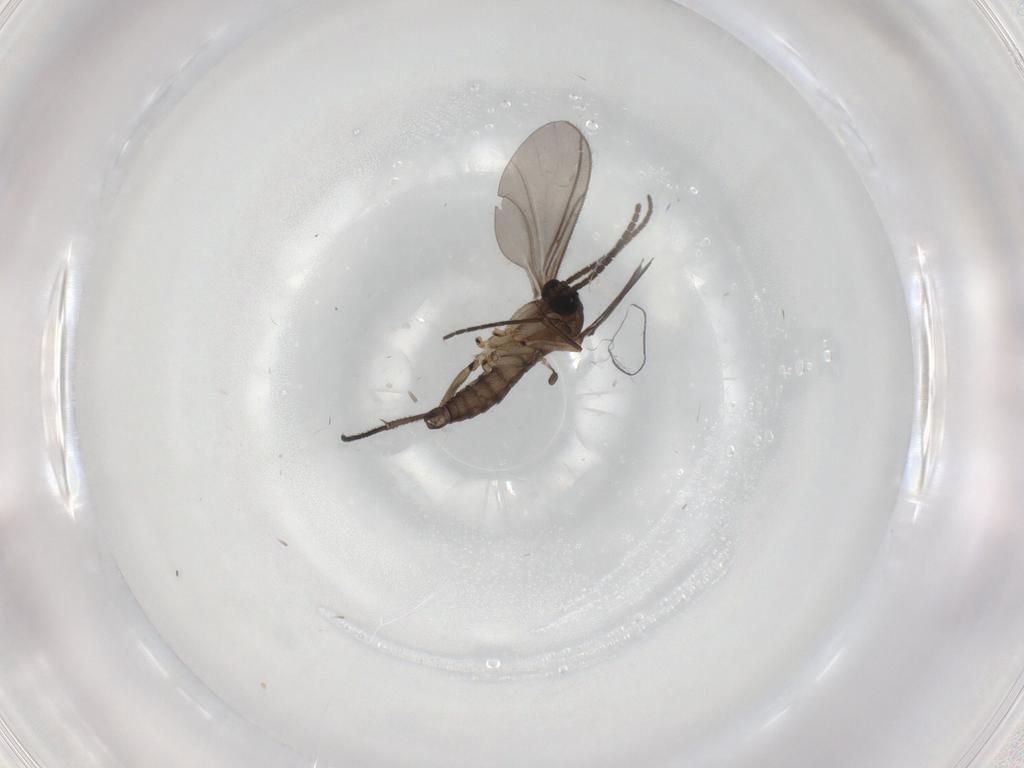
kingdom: Animalia
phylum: Arthropoda
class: Insecta
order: Diptera
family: Sciaridae
